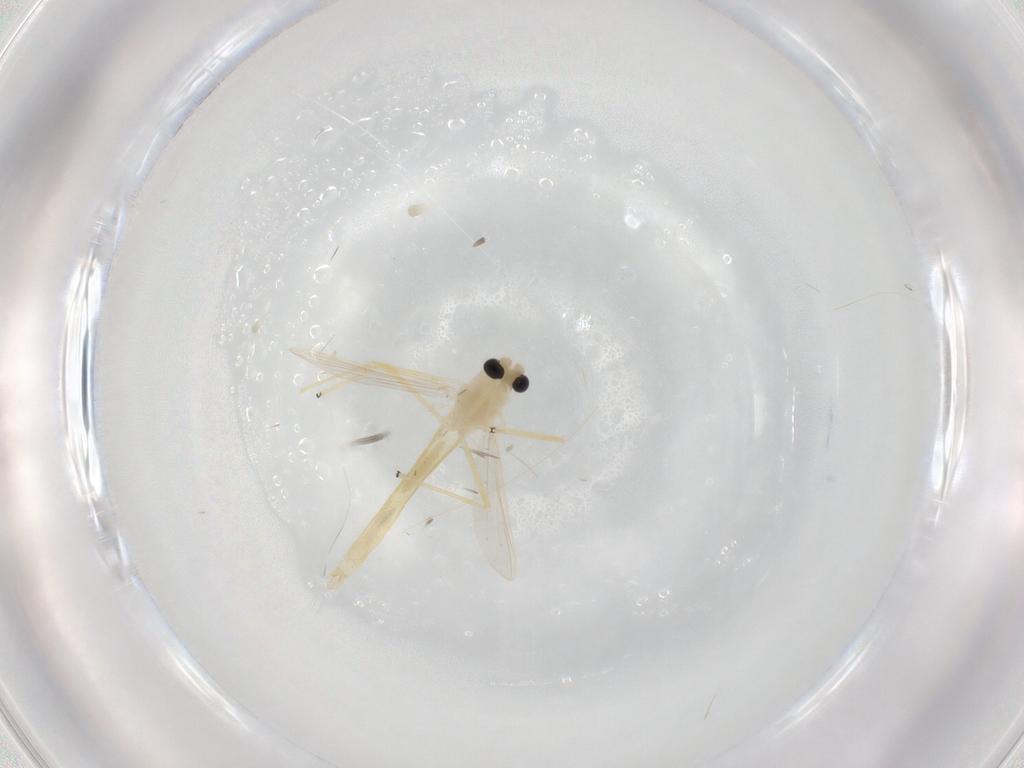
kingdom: Animalia
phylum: Arthropoda
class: Insecta
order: Diptera
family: Chironomidae
